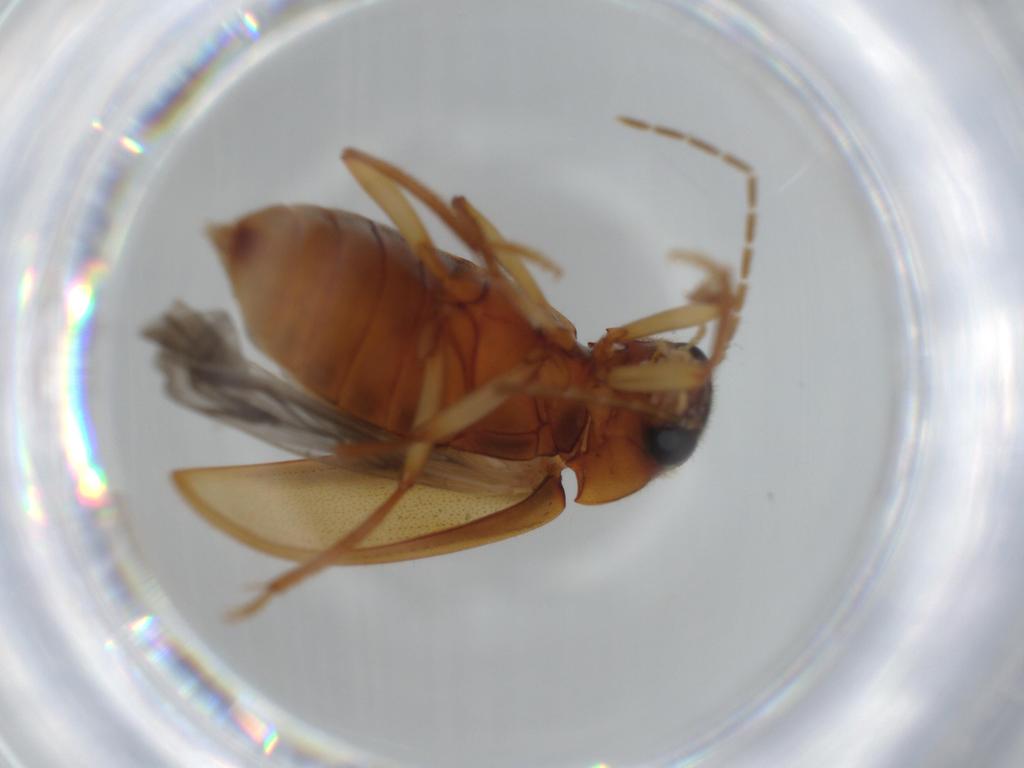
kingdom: Animalia
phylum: Arthropoda
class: Insecta
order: Coleoptera
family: Ptilodactylidae
